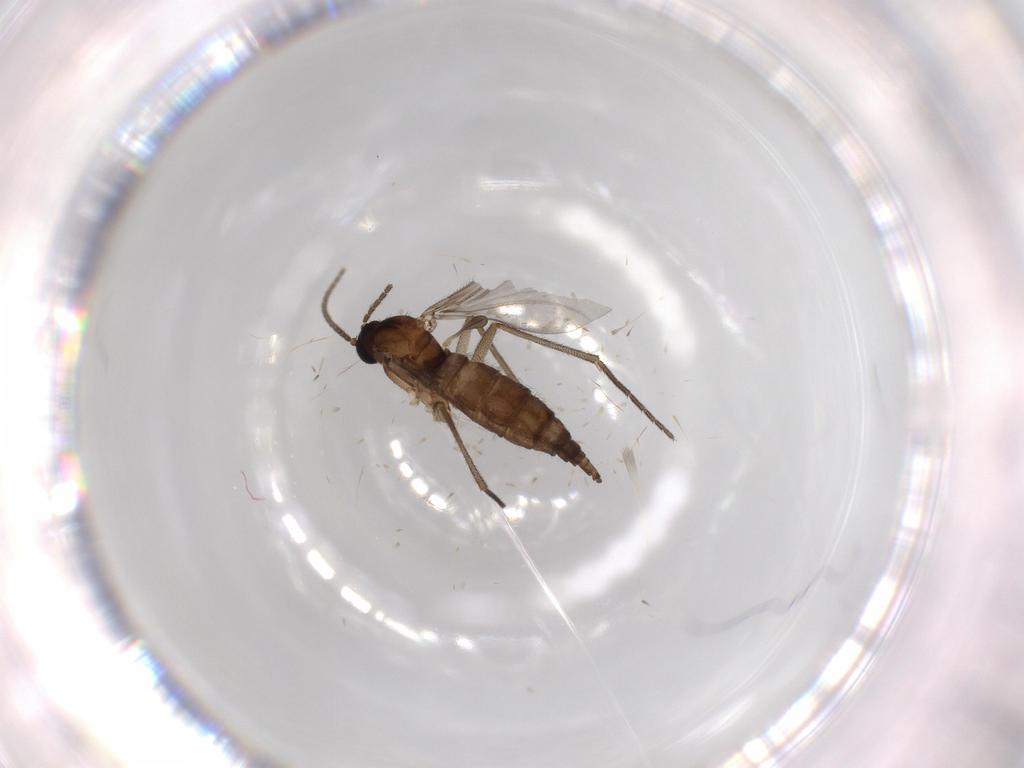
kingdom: Animalia
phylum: Arthropoda
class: Insecta
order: Diptera
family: Sciaridae
